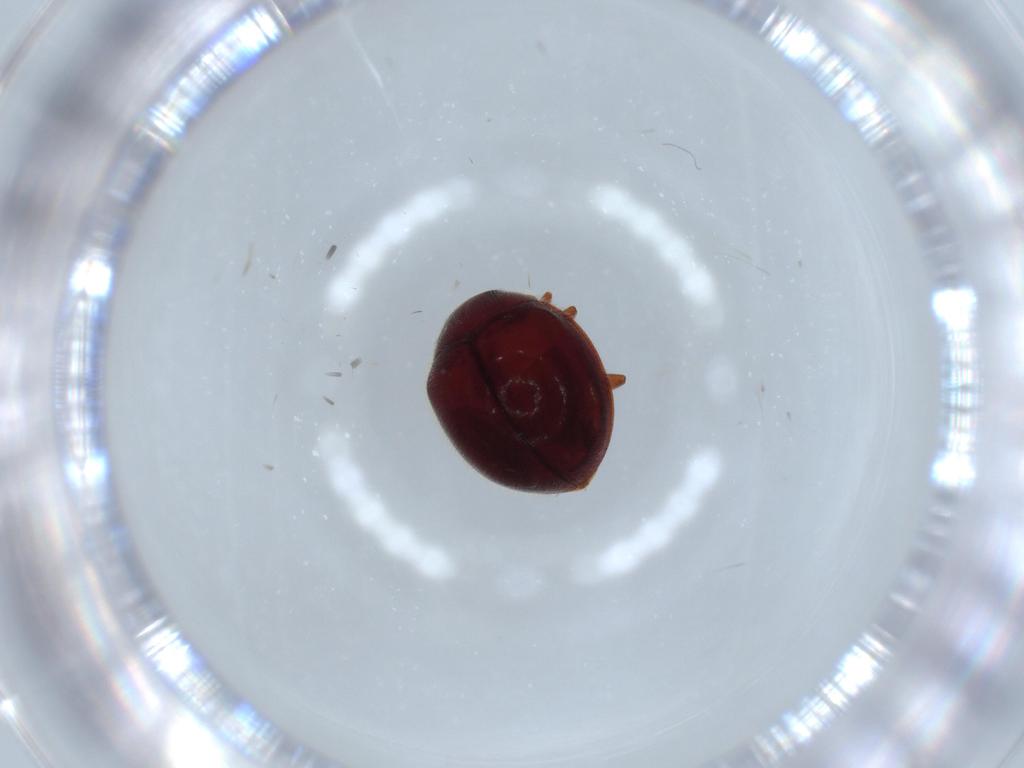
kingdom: Animalia
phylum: Arthropoda
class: Insecta
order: Coleoptera
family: Coccinellidae
